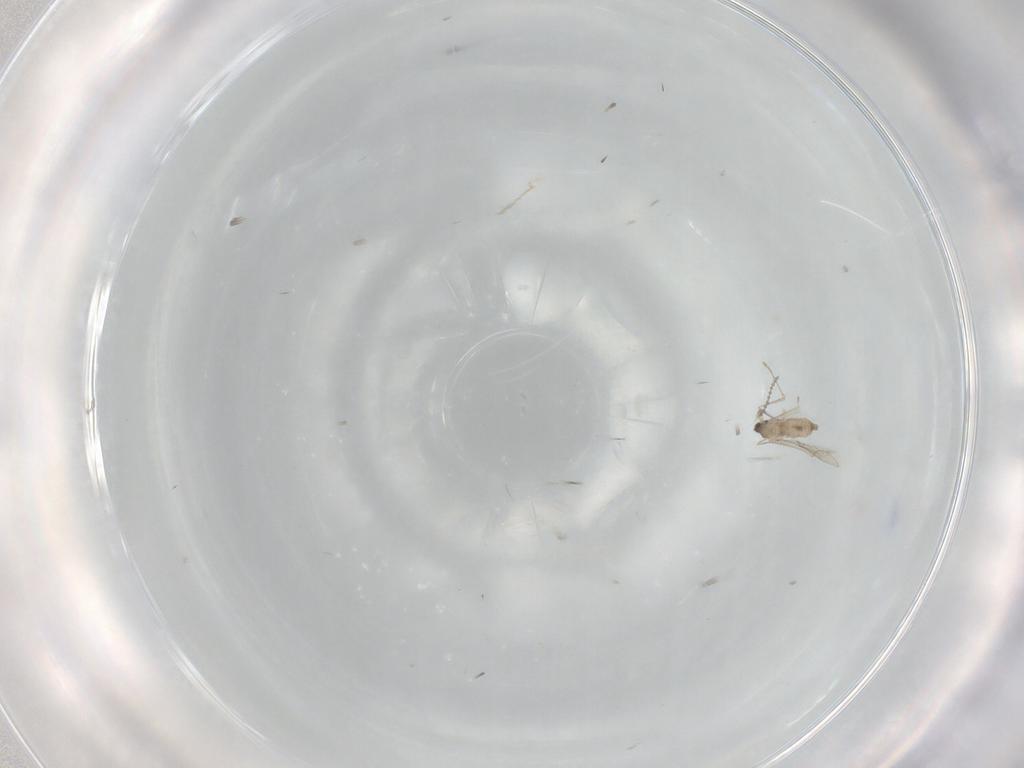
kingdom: Animalia
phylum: Arthropoda
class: Insecta
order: Diptera
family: Cecidomyiidae
